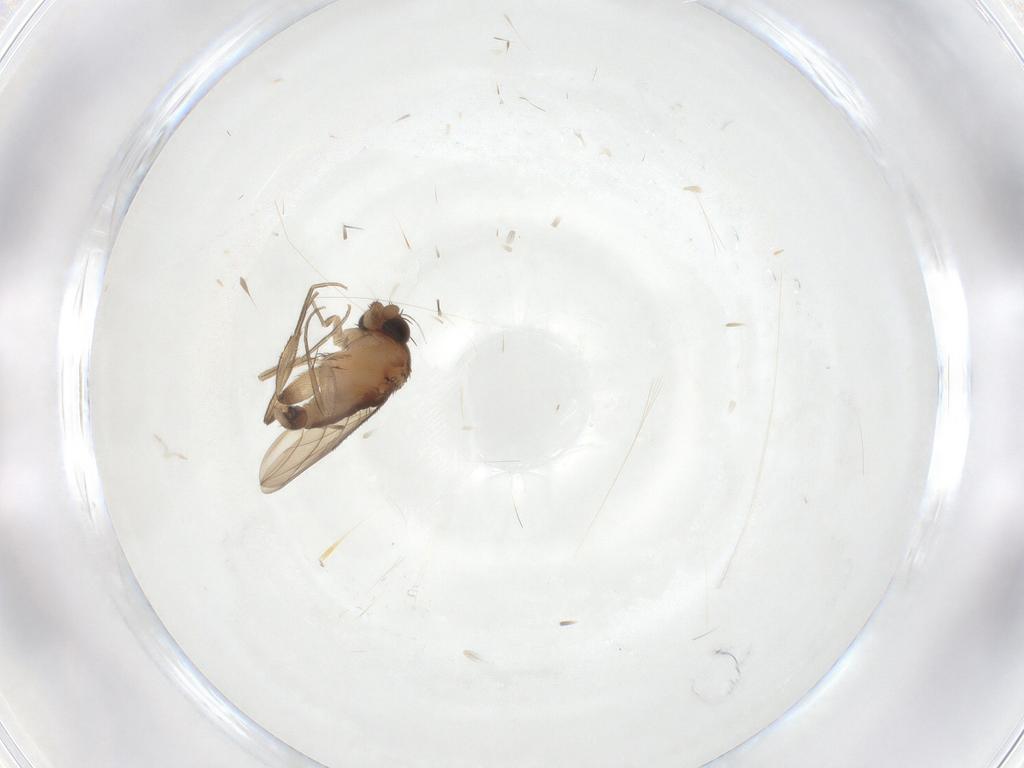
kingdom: Animalia
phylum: Arthropoda
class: Insecta
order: Diptera
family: Phoridae
